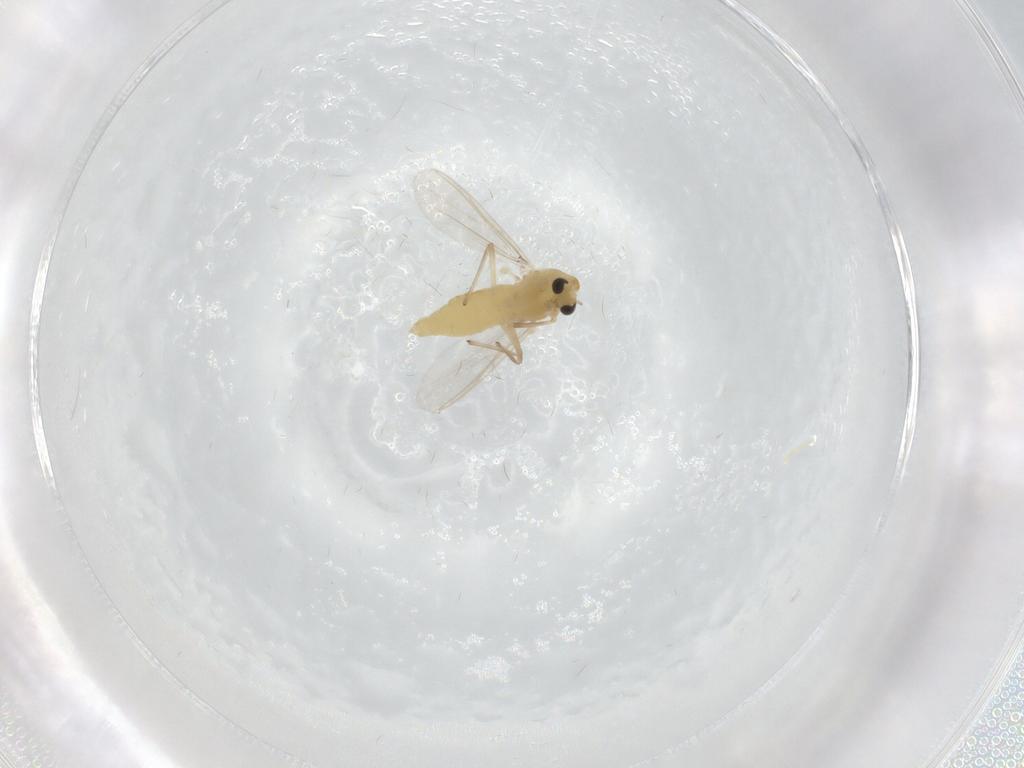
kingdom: Animalia
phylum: Arthropoda
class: Insecta
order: Diptera
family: Chironomidae
